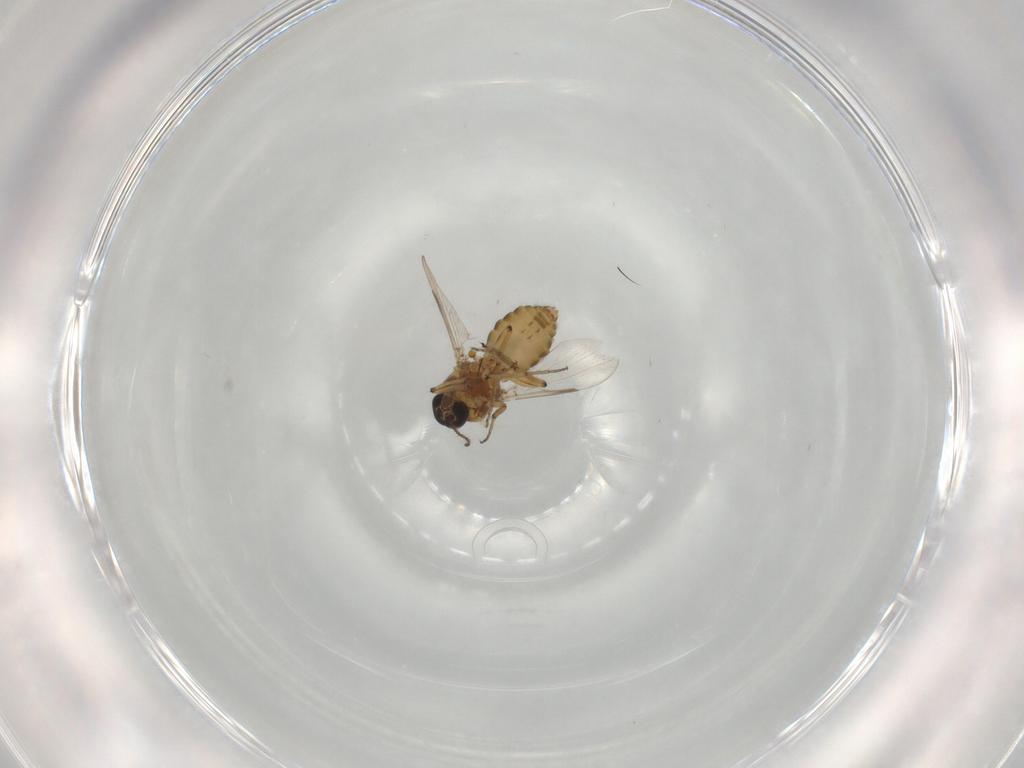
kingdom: Animalia
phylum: Arthropoda
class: Insecta
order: Diptera
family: Ceratopogonidae
